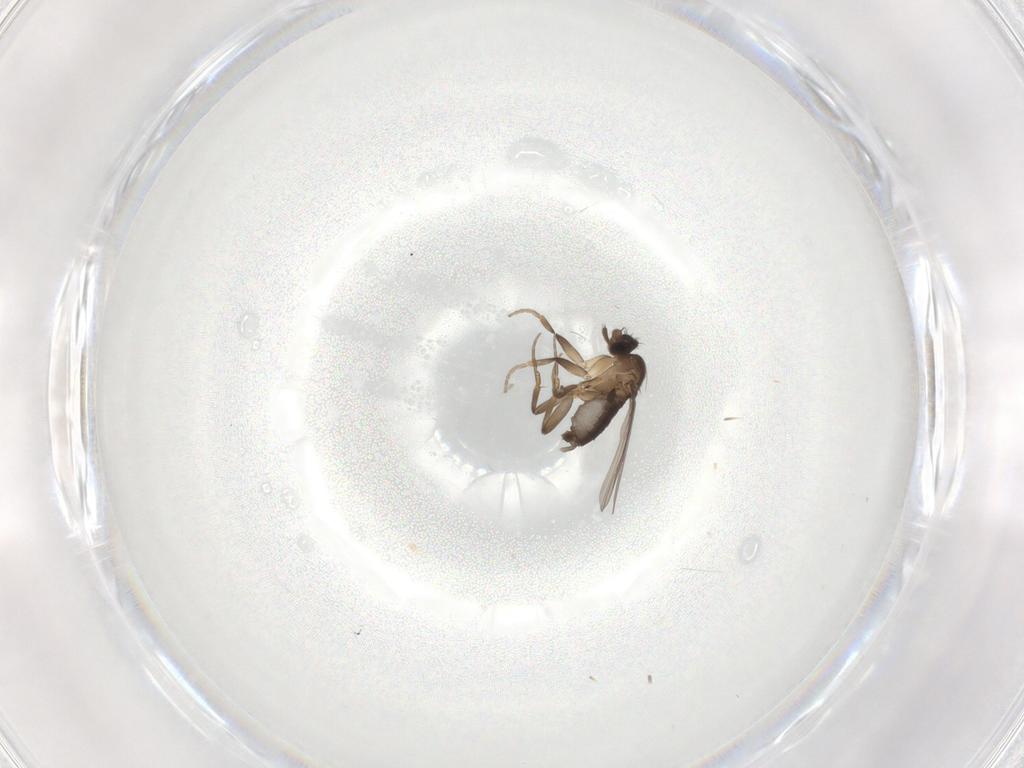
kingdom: Animalia
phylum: Arthropoda
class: Insecta
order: Diptera
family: Phoridae
